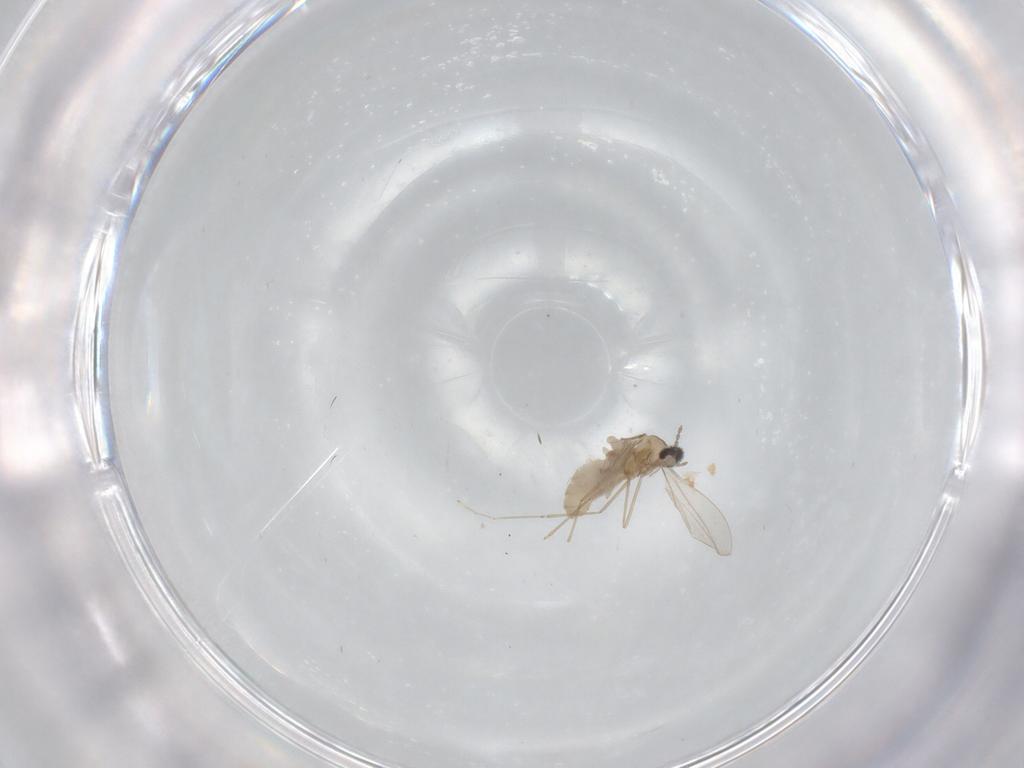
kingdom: Animalia
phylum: Arthropoda
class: Insecta
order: Diptera
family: Cecidomyiidae
